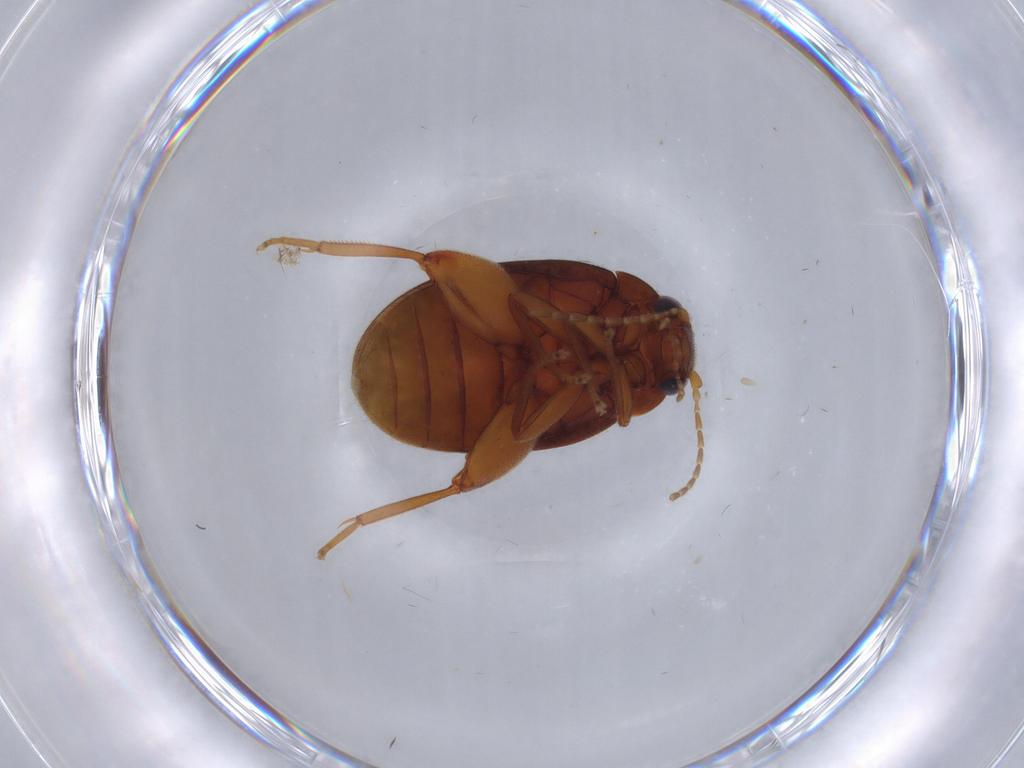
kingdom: Animalia
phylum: Arthropoda
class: Insecta
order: Coleoptera
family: Scirtidae
